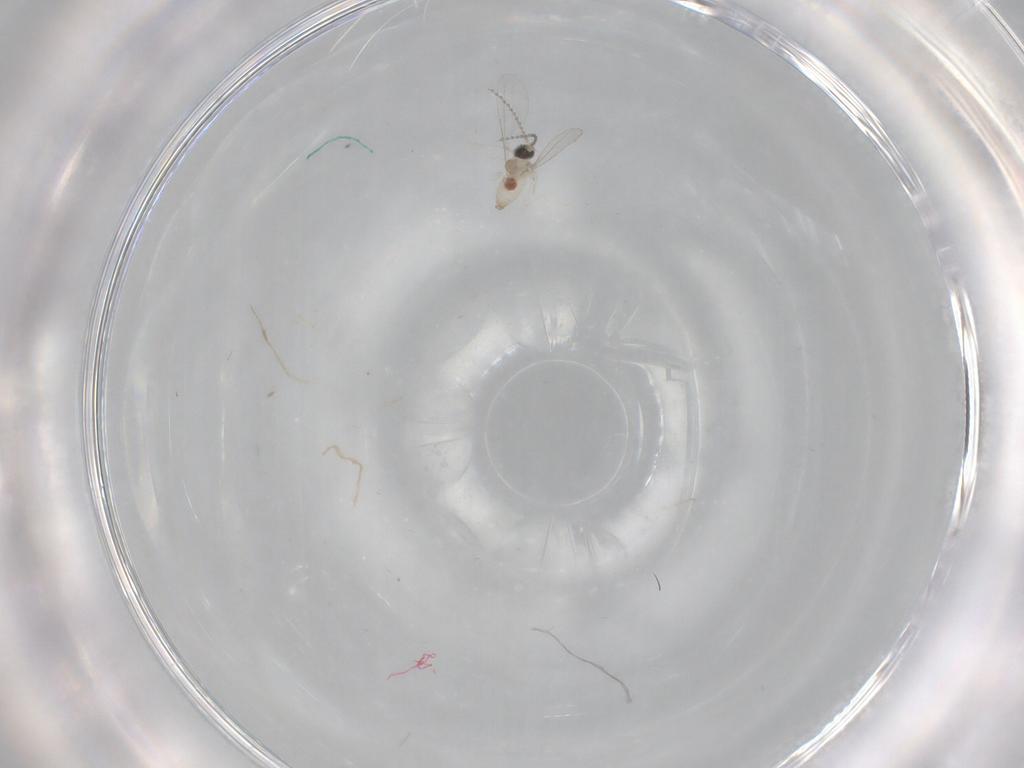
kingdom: Animalia
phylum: Arthropoda
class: Insecta
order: Diptera
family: Cecidomyiidae
